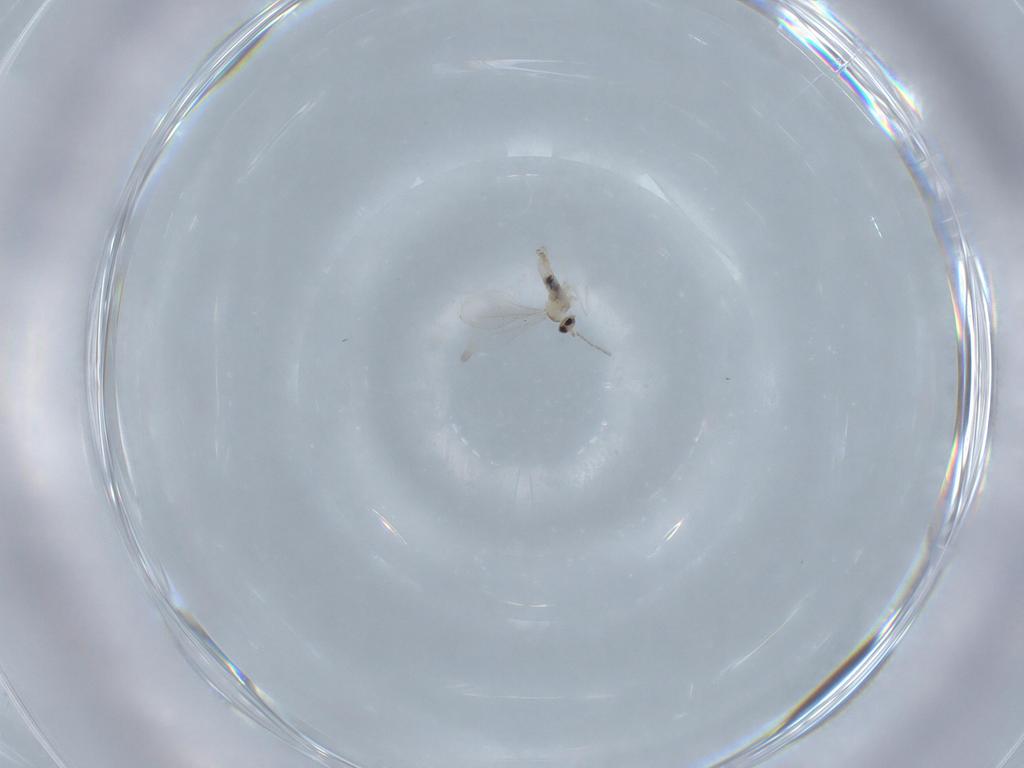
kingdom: Animalia
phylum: Arthropoda
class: Insecta
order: Diptera
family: Cecidomyiidae
